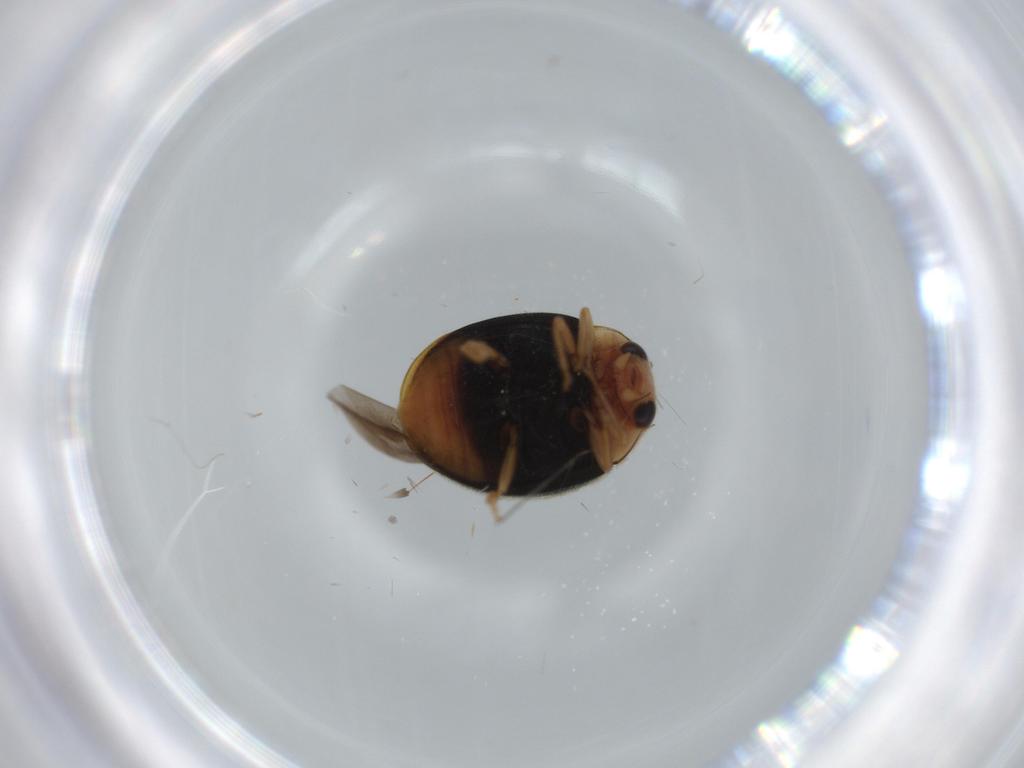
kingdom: Animalia
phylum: Arthropoda
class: Insecta
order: Coleoptera
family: Coccinellidae
